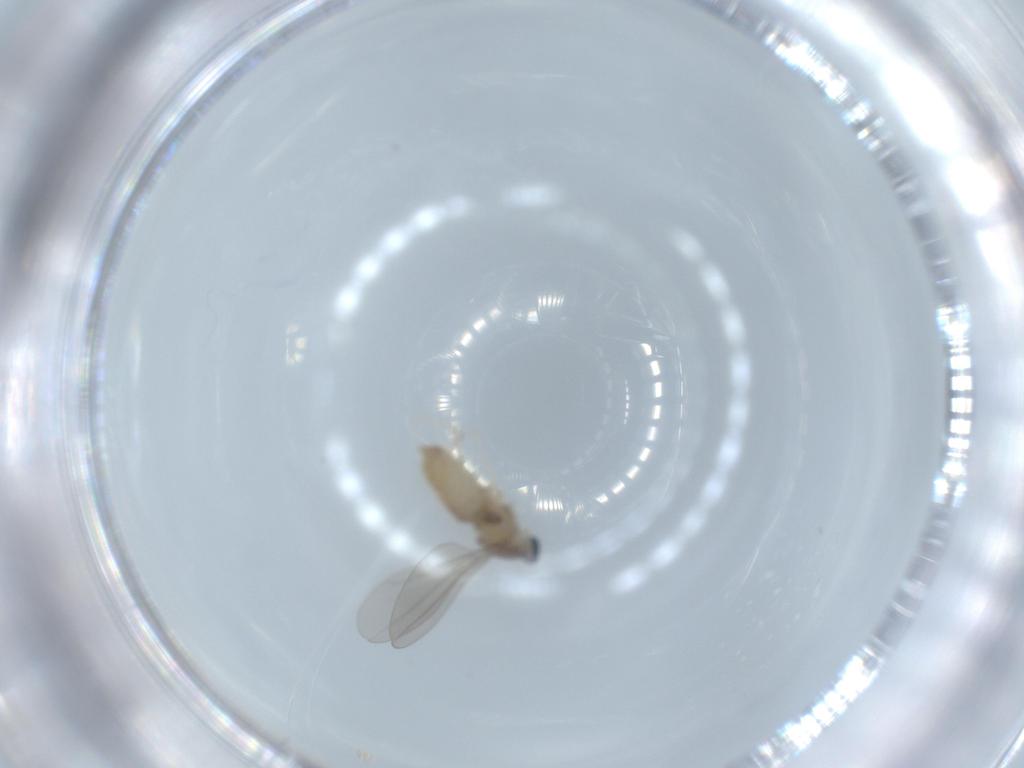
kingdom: Animalia
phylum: Arthropoda
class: Insecta
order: Diptera
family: Cecidomyiidae
